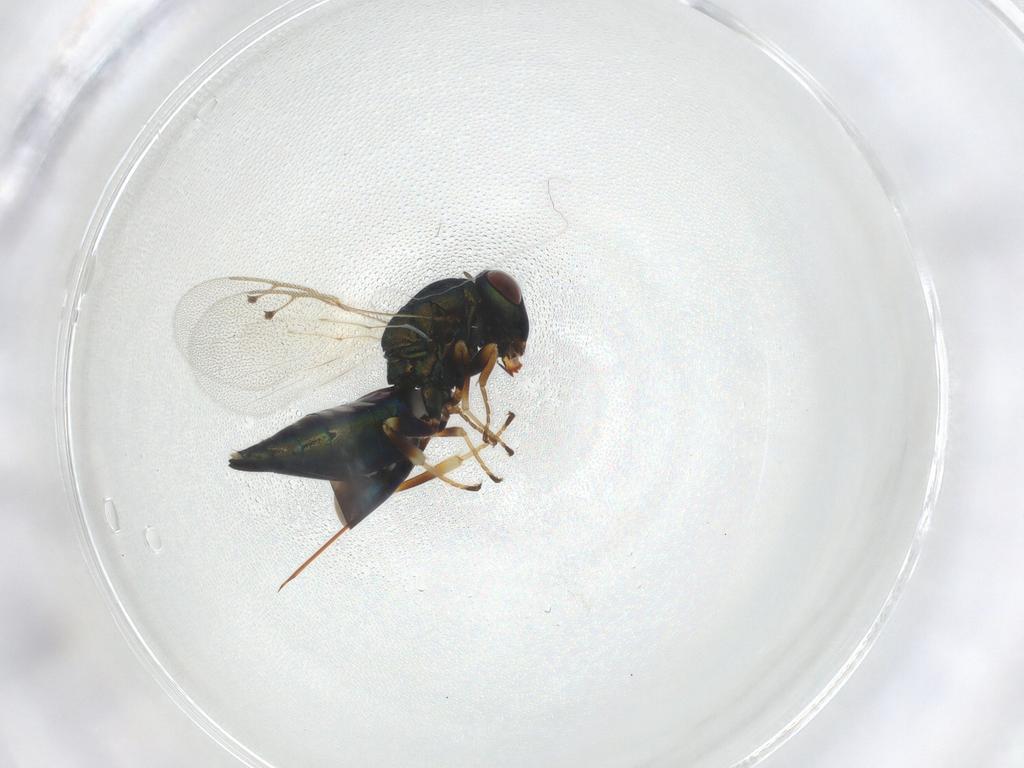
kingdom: Animalia
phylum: Arthropoda
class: Insecta
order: Hymenoptera
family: Pteromalidae
